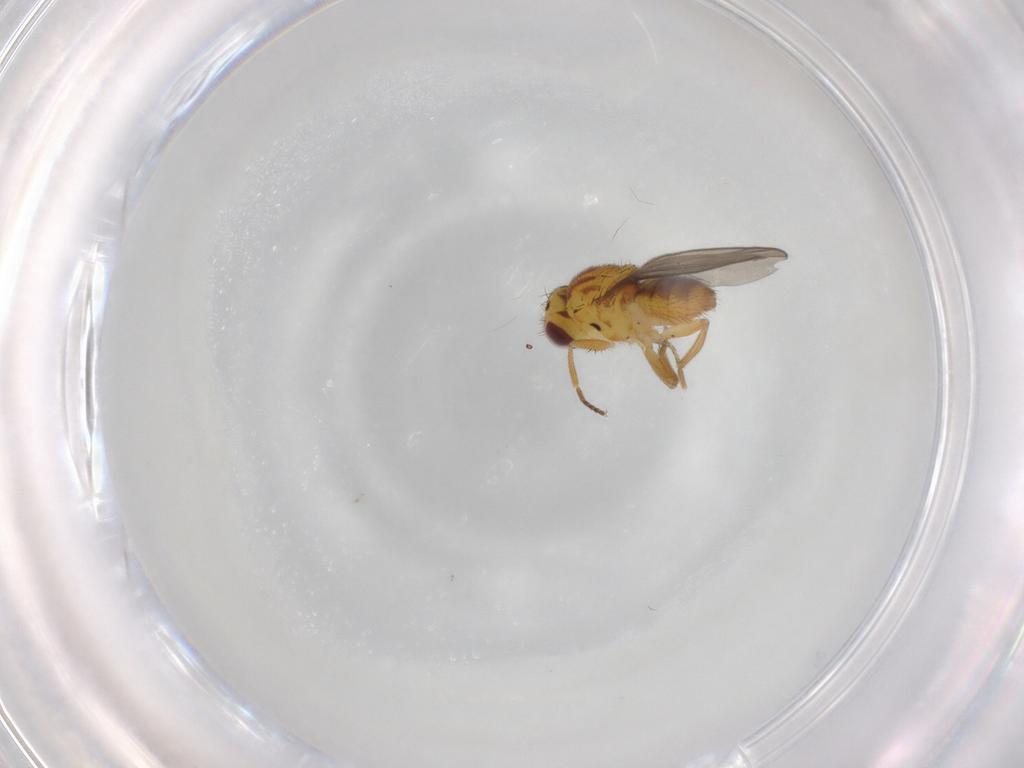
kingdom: Animalia
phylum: Arthropoda
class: Insecta
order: Diptera
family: Chloropidae
